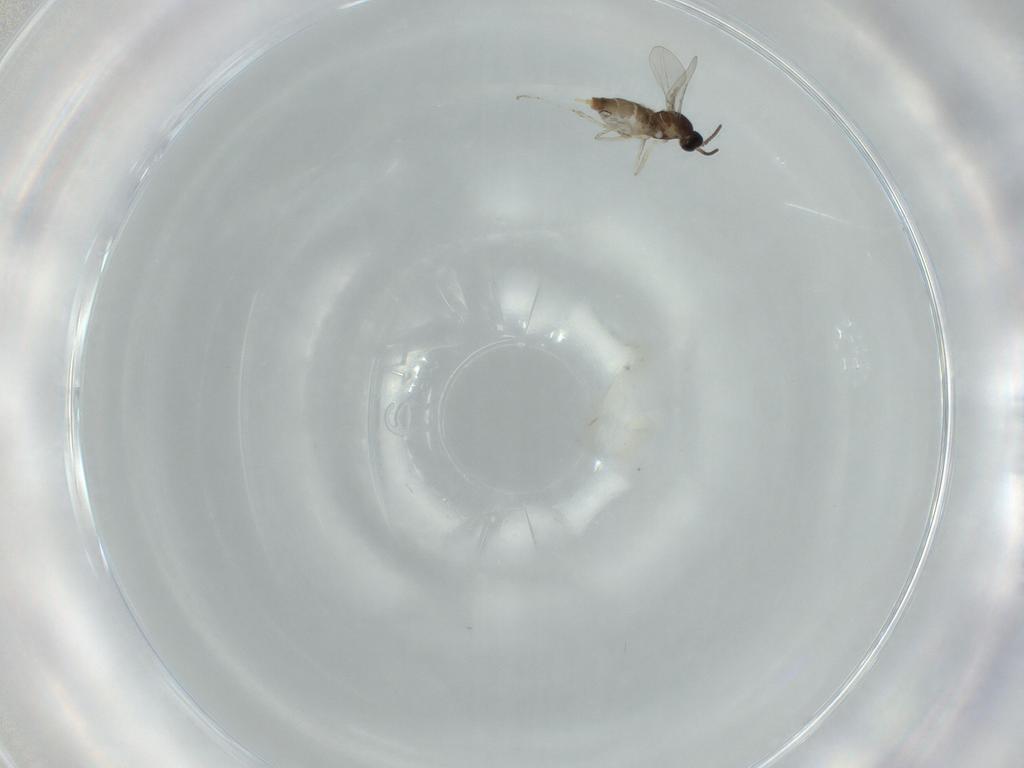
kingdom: Animalia
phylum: Arthropoda
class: Insecta
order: Diptera
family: Cecidomyiidae
